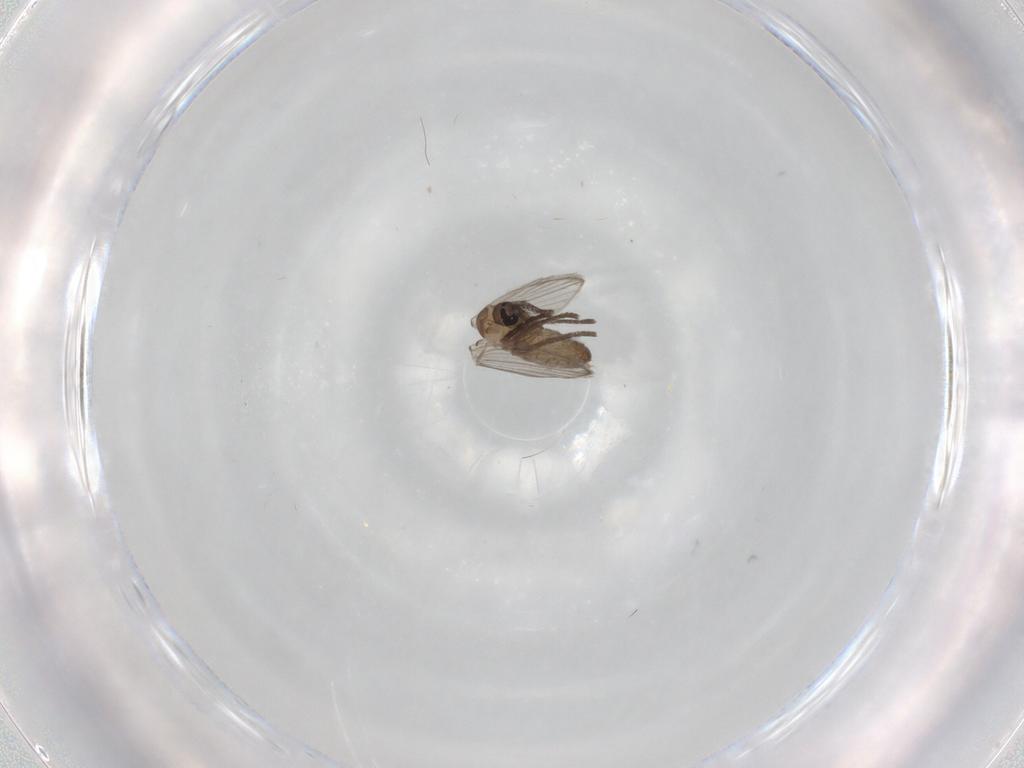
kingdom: Animalia
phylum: Arthropoda
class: Insecta
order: Diptera
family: Psychodidae
